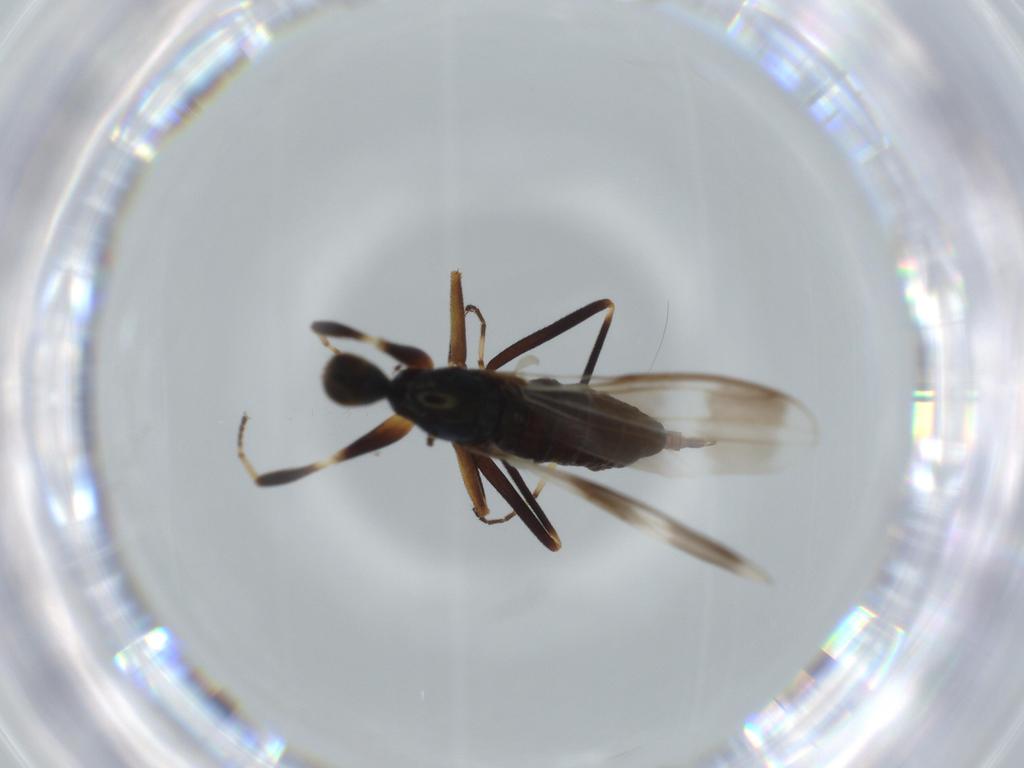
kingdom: Animalia
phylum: Arthropoda
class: Insecta
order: Diptera
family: Hybotidae
